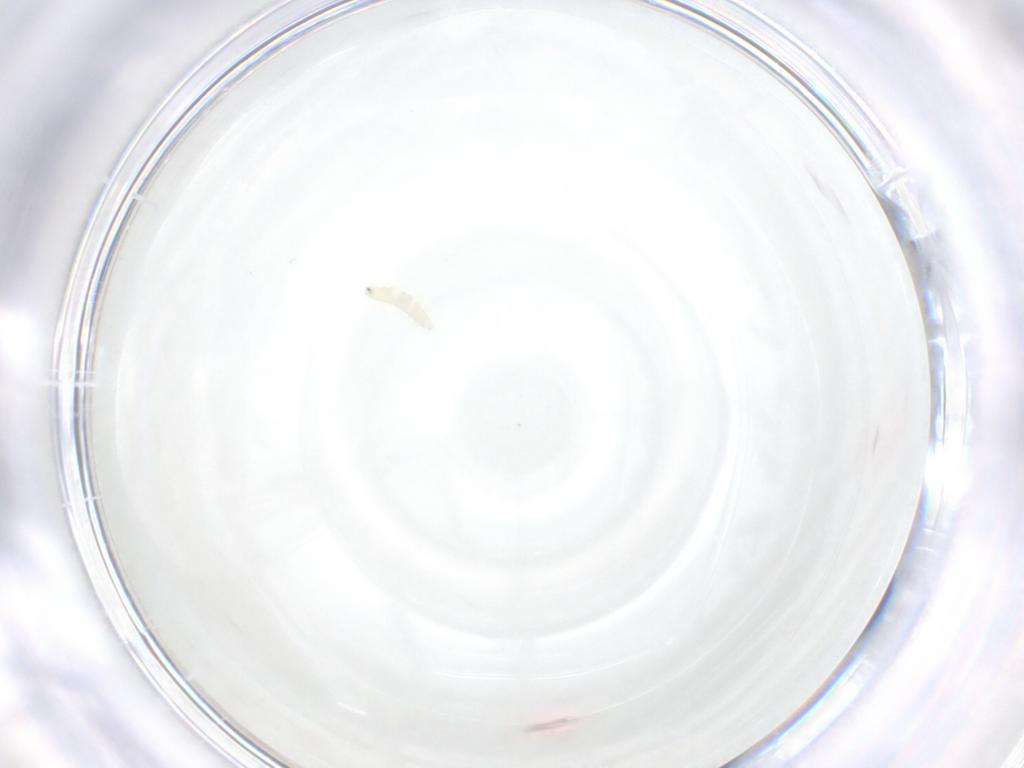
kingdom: Animalia
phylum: Arthropoda
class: Insecta
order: Diptera
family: Tachinidae
